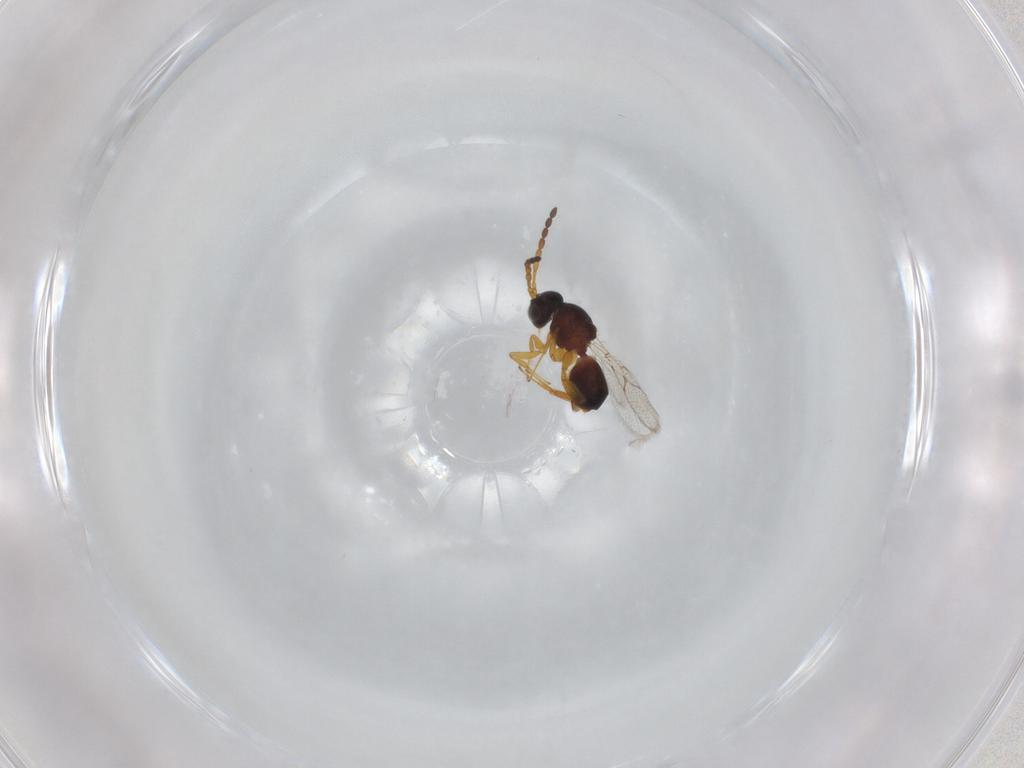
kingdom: Animalia
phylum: Arthropoda
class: Insecta
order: Hymenoptera
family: Figitidae
